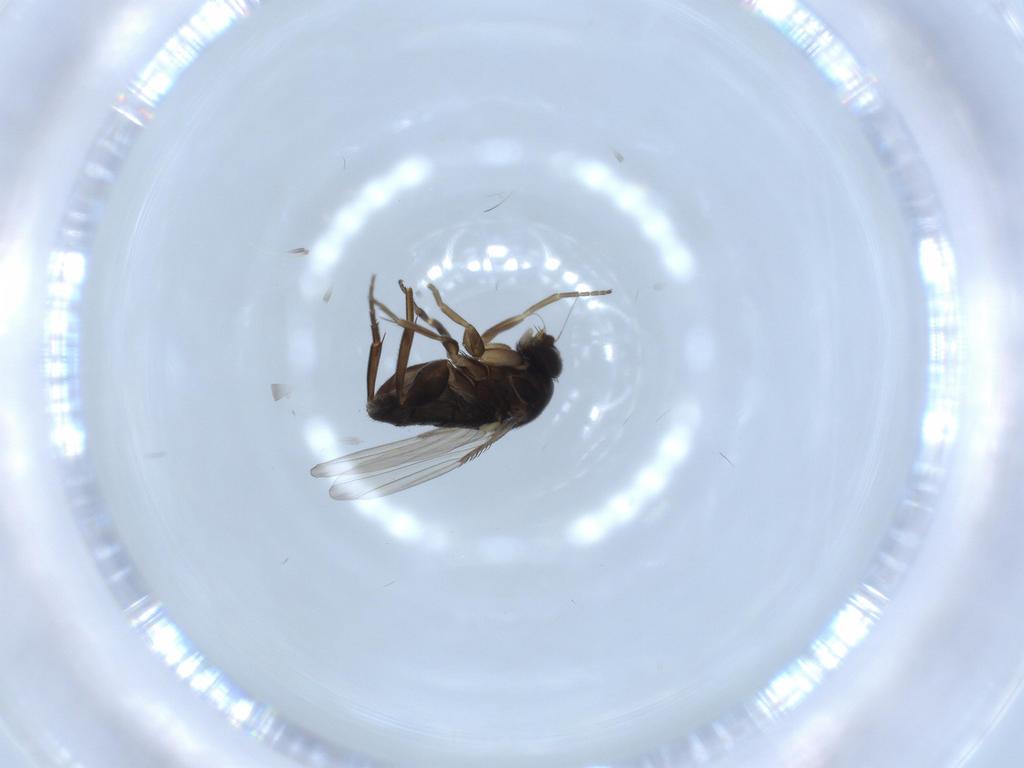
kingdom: Animalia
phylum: Arthropoda
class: Insecta
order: Diptera
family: Phoridae
